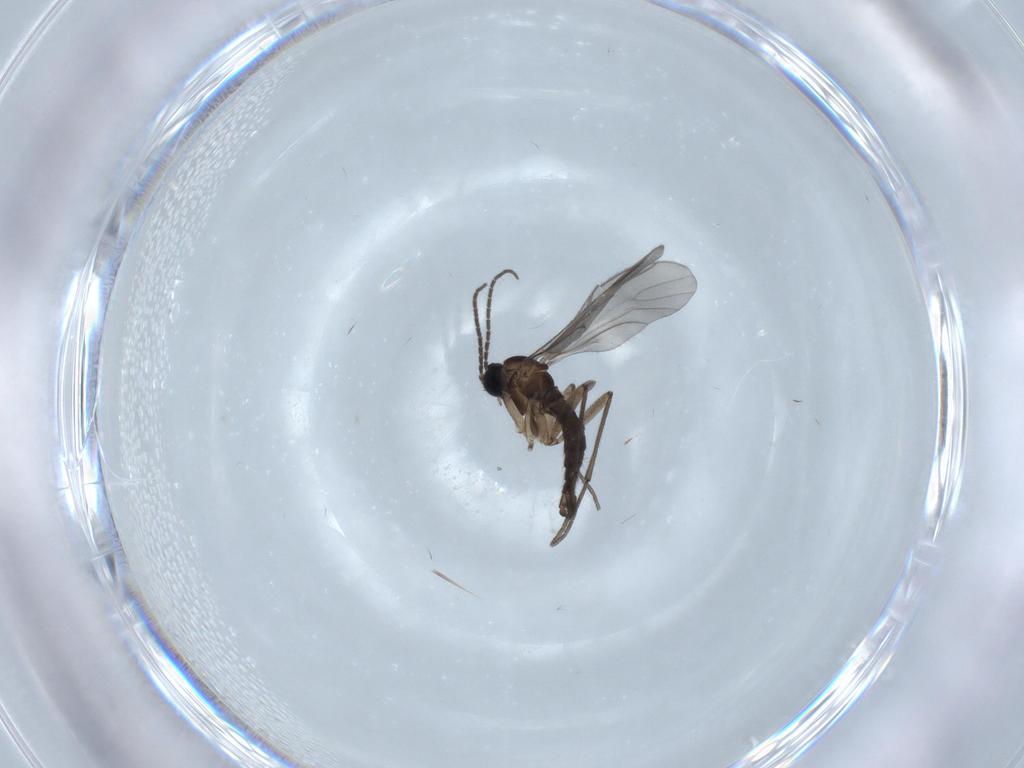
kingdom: Animalia
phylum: Arthropoda
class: Insecta
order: Diptera
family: Sciaridae
